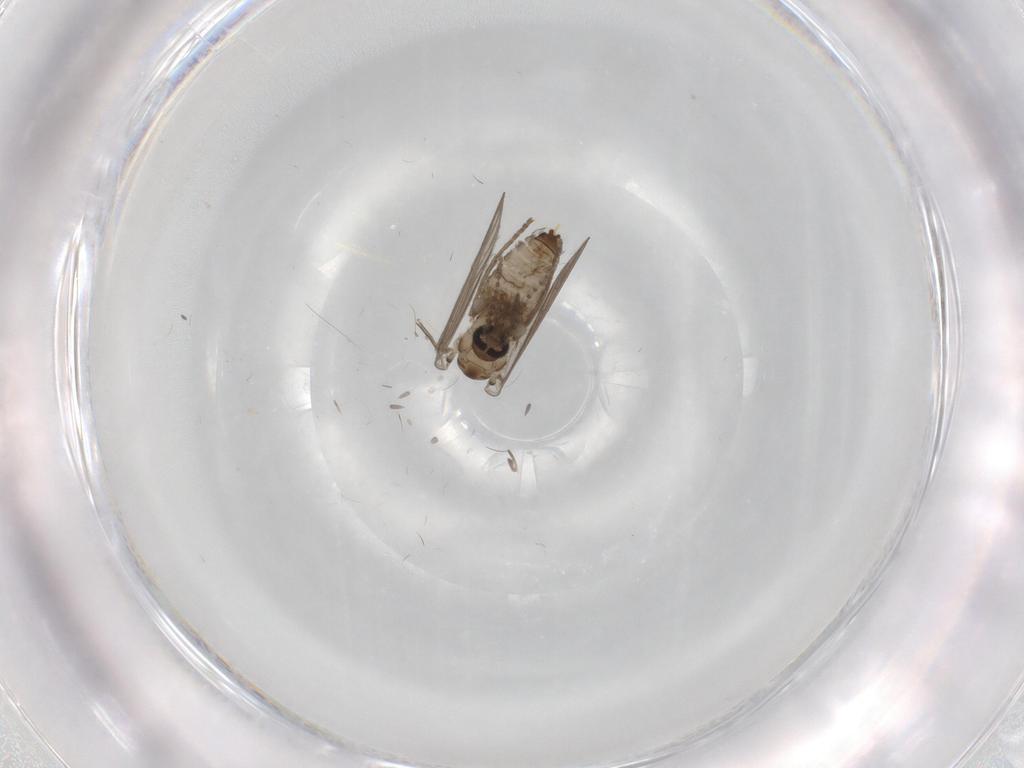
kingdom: Animalia
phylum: Arthropoda
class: Insecta
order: Diptera
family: Psychodidae
